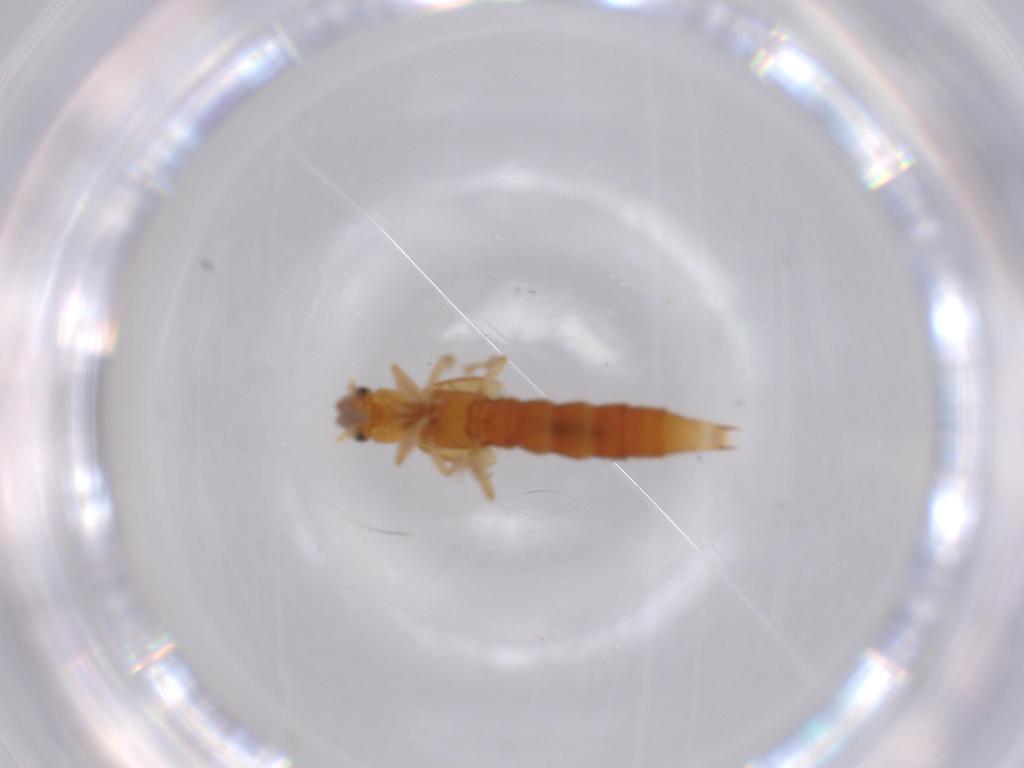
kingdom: Animalia
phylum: Arthropoda
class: Insecta
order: Coleoptera
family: Staphylinidae
